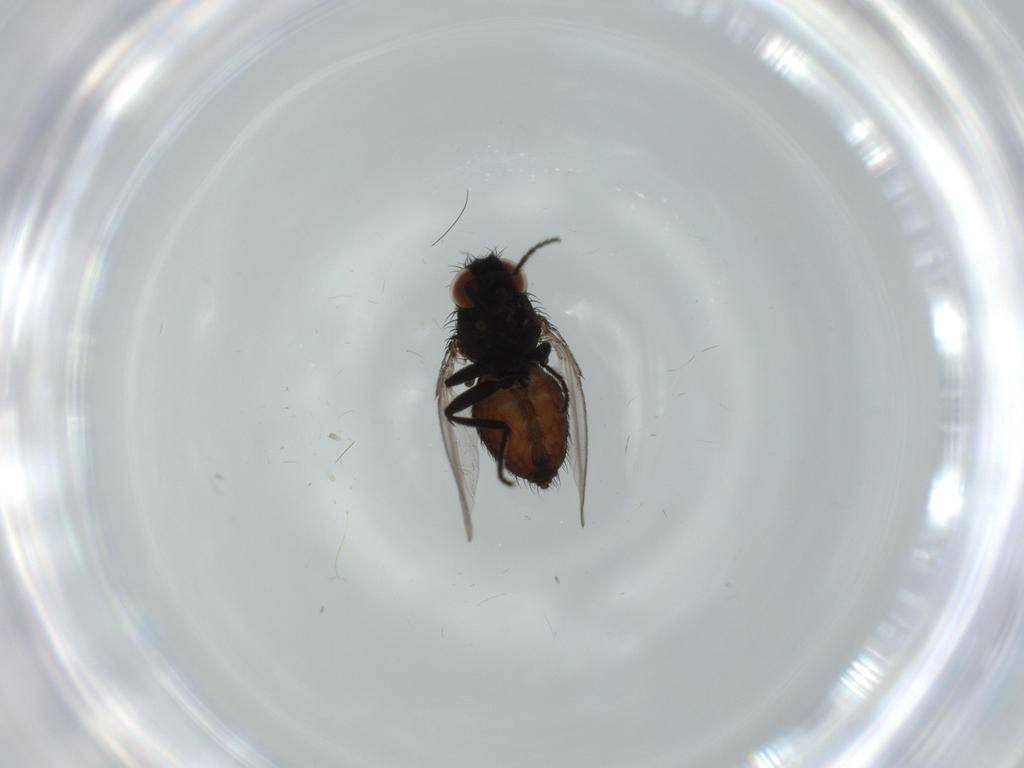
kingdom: Animalia
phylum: Arthropoda
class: Insecta
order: Diptera
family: Milichiidae
